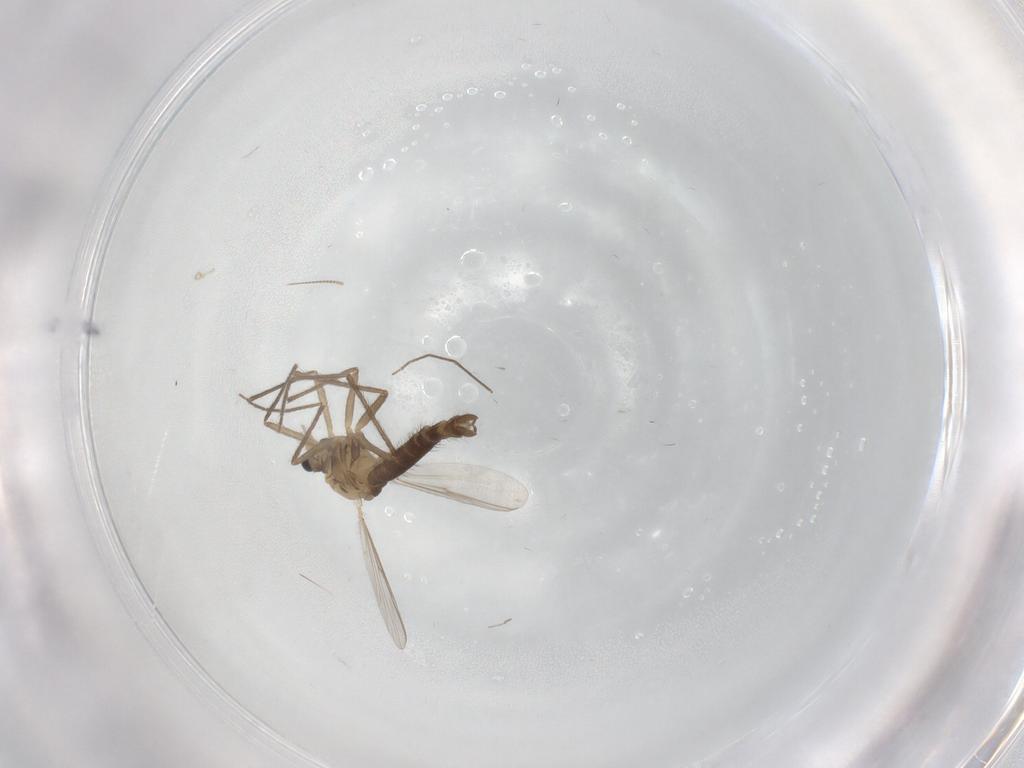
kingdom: Animalia
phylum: Arthropoda
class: Insecta
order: Diptera
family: Chironomidae
